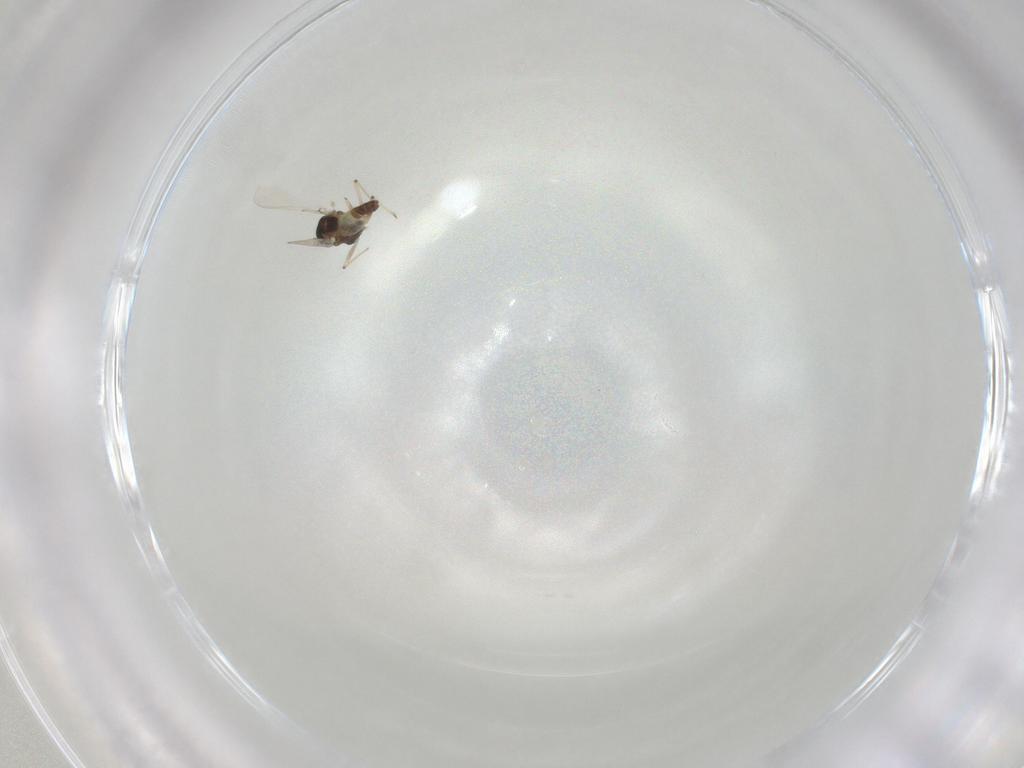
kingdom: Animalia
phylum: Arthropoda
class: Insecta
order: Diptera
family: Chironomidae
